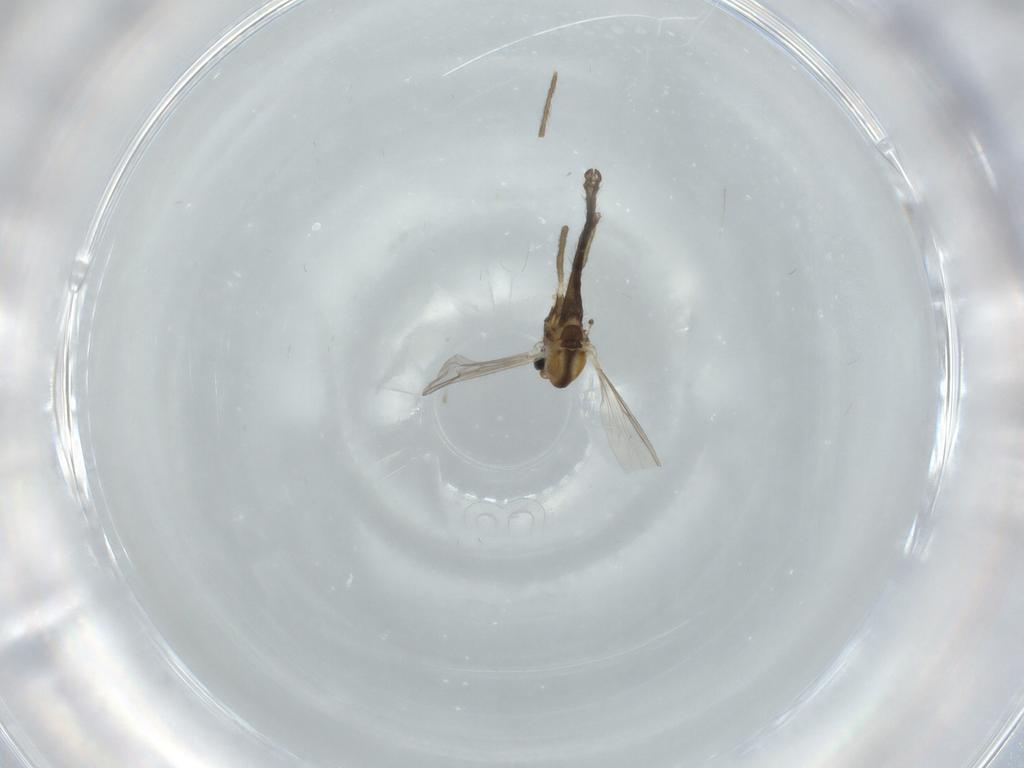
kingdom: Animalia
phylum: Arthropoda
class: Insecta
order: Diptera
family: Chironomidae
